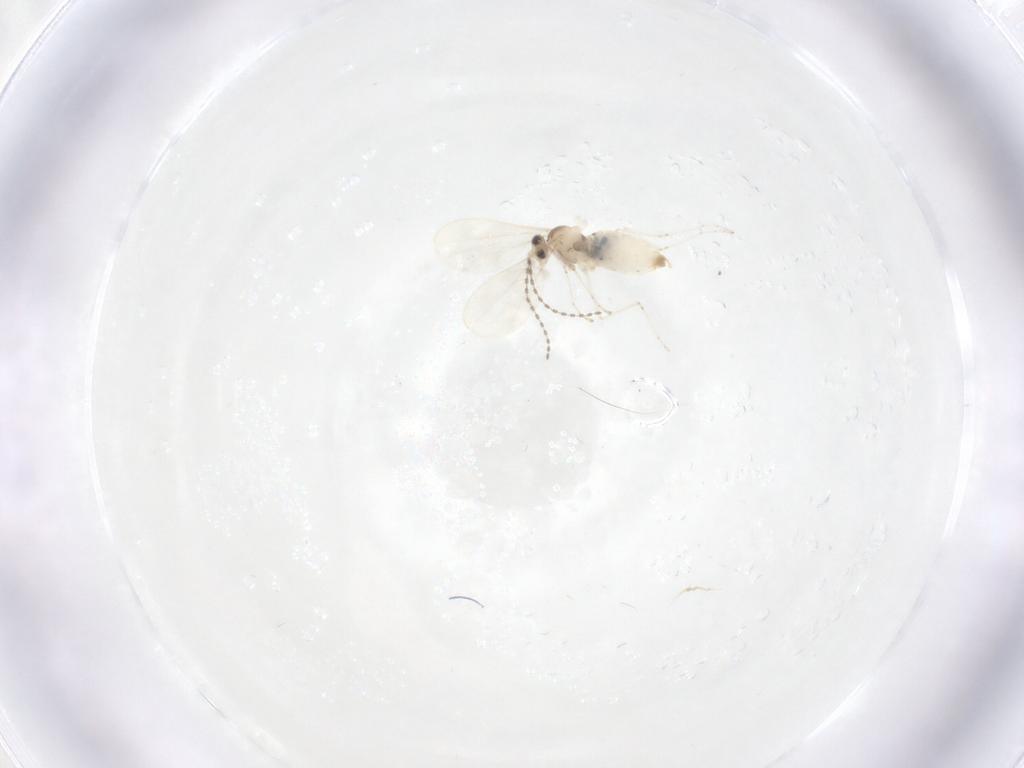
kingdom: Animalia
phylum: Arthropoda
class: Insecta
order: Diptera
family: Cecidomyiidae
